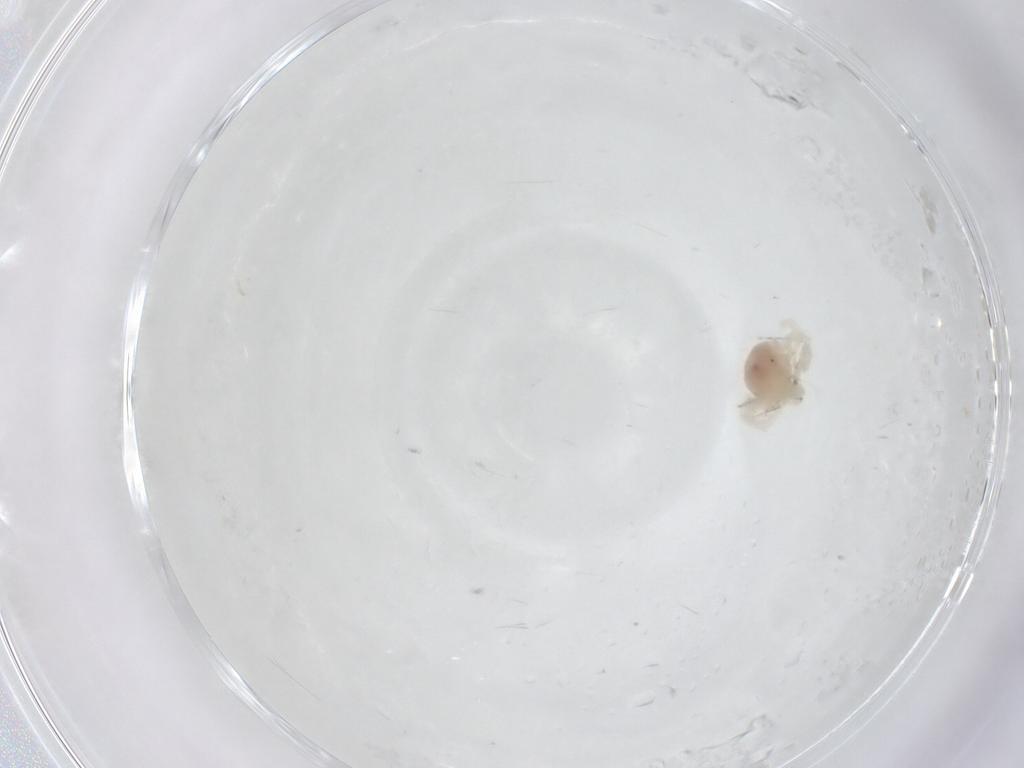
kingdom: Animalia
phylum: Arthropoda
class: Arachnida
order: Trombidiformes
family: Anystidae
